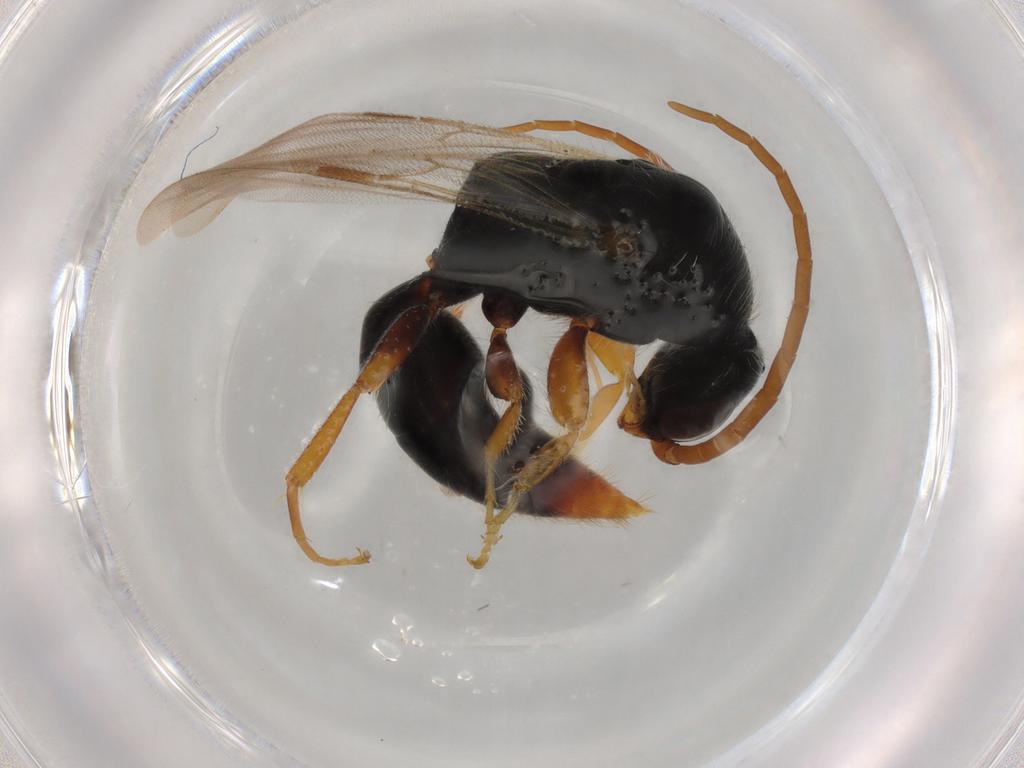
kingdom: Animalia
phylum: Arthropoda
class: Insecta
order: Hymenoptera
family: Bethylidae
